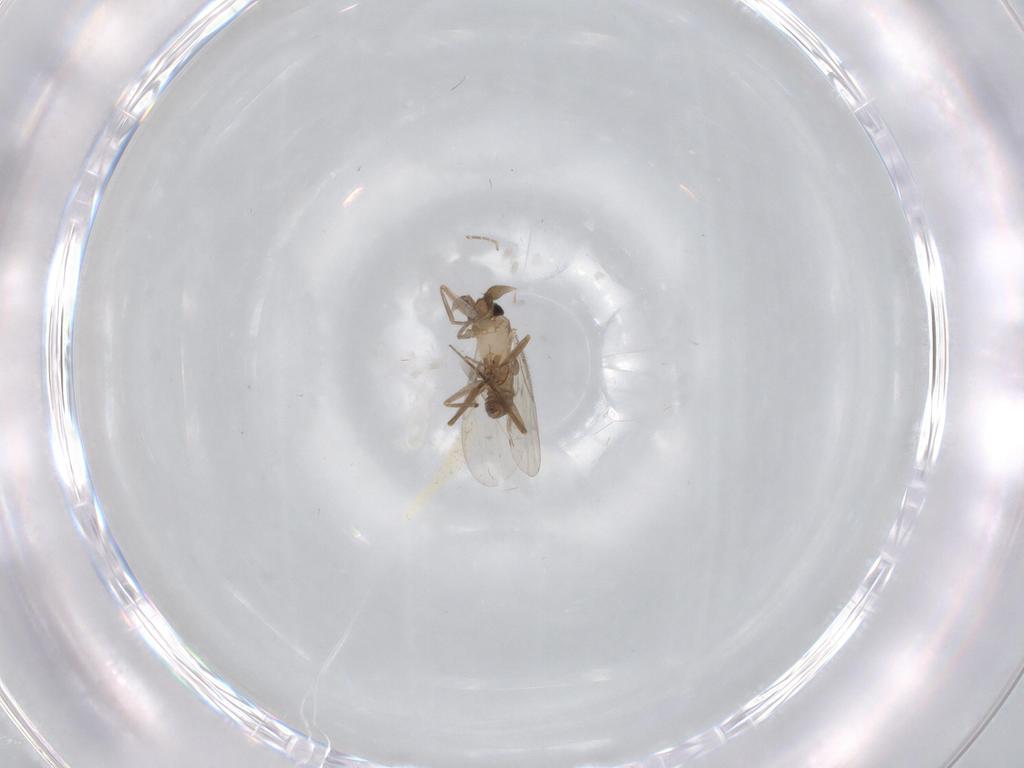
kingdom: Animalia
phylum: Arthropoda
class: Insecta
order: Diptera
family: Phoridae
